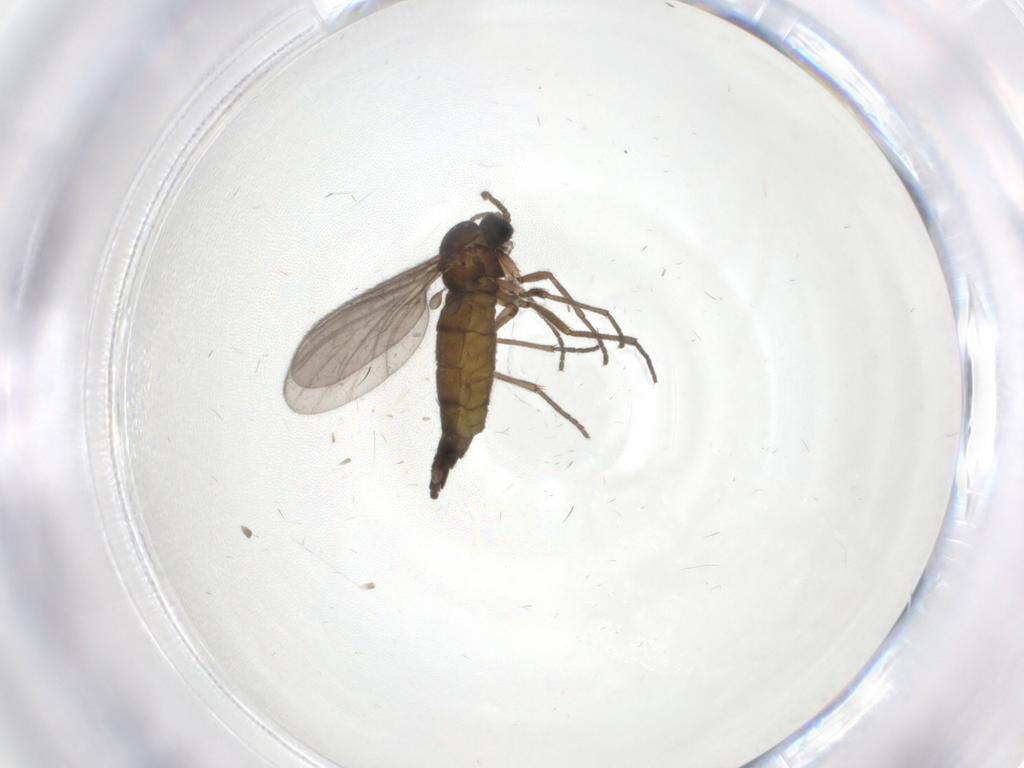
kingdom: Animalia
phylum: Arthropoda
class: Insecta
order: Diptera
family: Sciaridae
